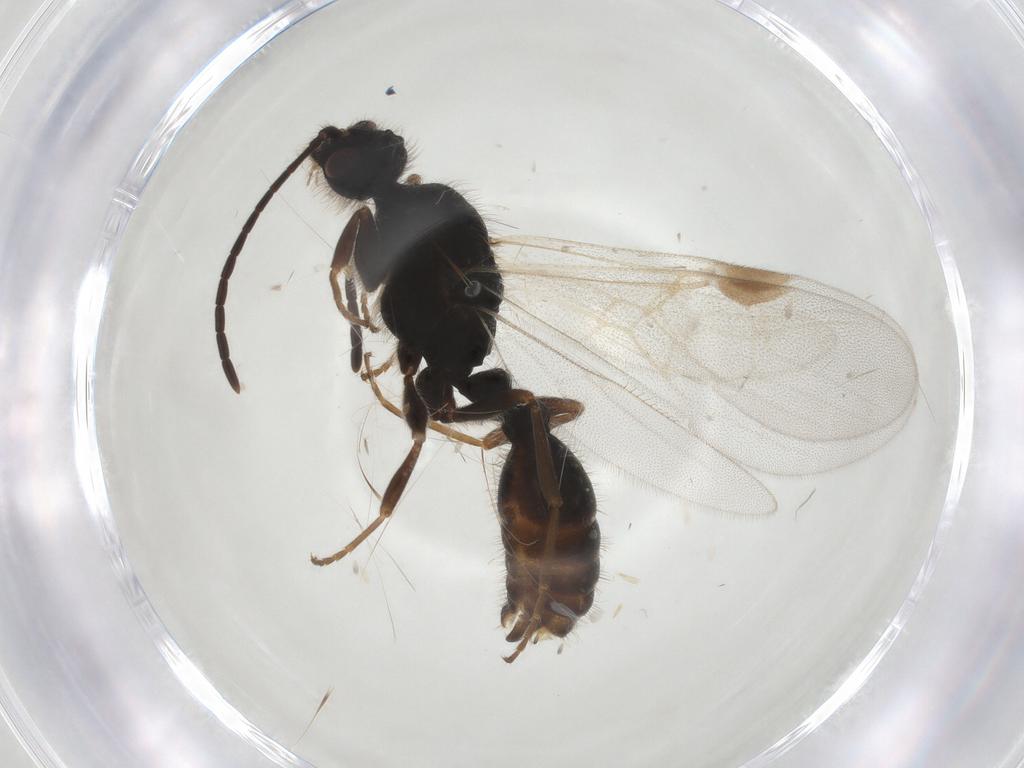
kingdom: Animalia
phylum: Arthropoda
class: Insecta
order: Hymenoptera
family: Formicidae
